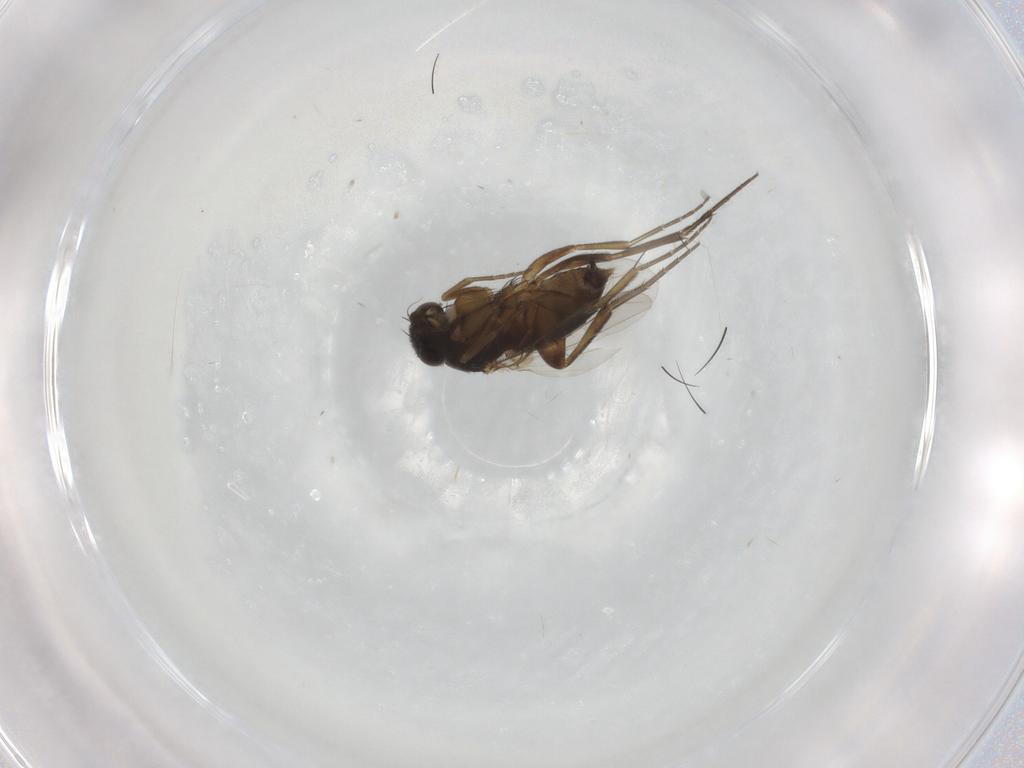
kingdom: Animalia
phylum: Arthropoda
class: Insecta
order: Diptera
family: Phoridae
